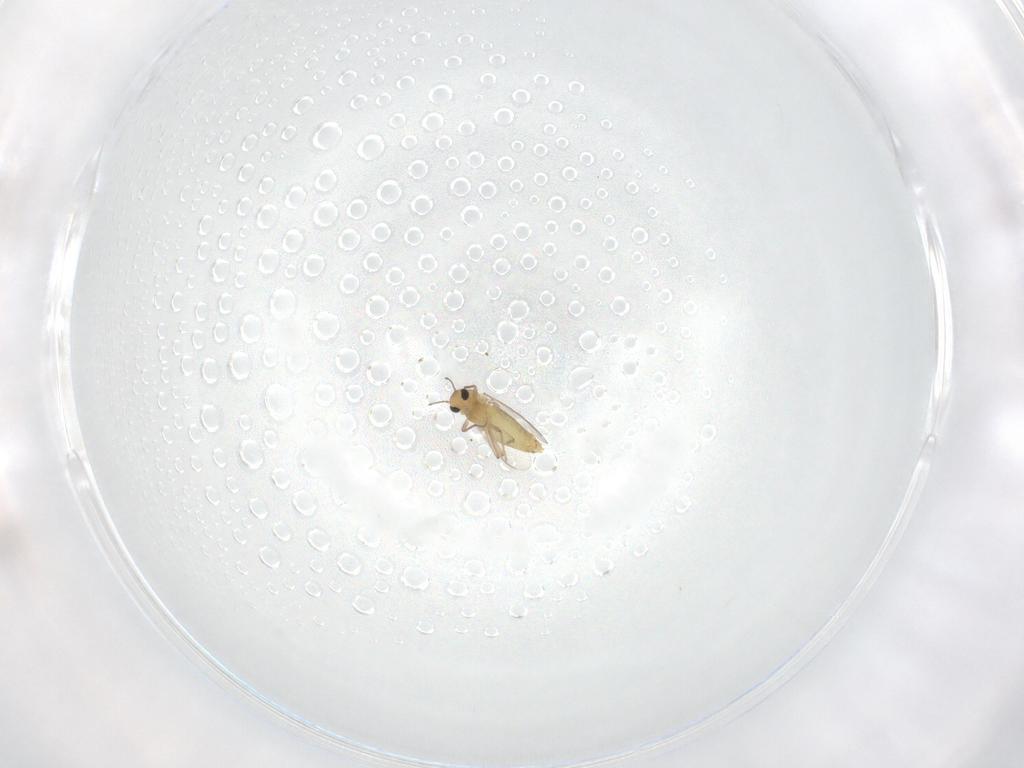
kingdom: Animalia
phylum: Arthropoda
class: Insecta
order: Diptera
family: Chironomidae
